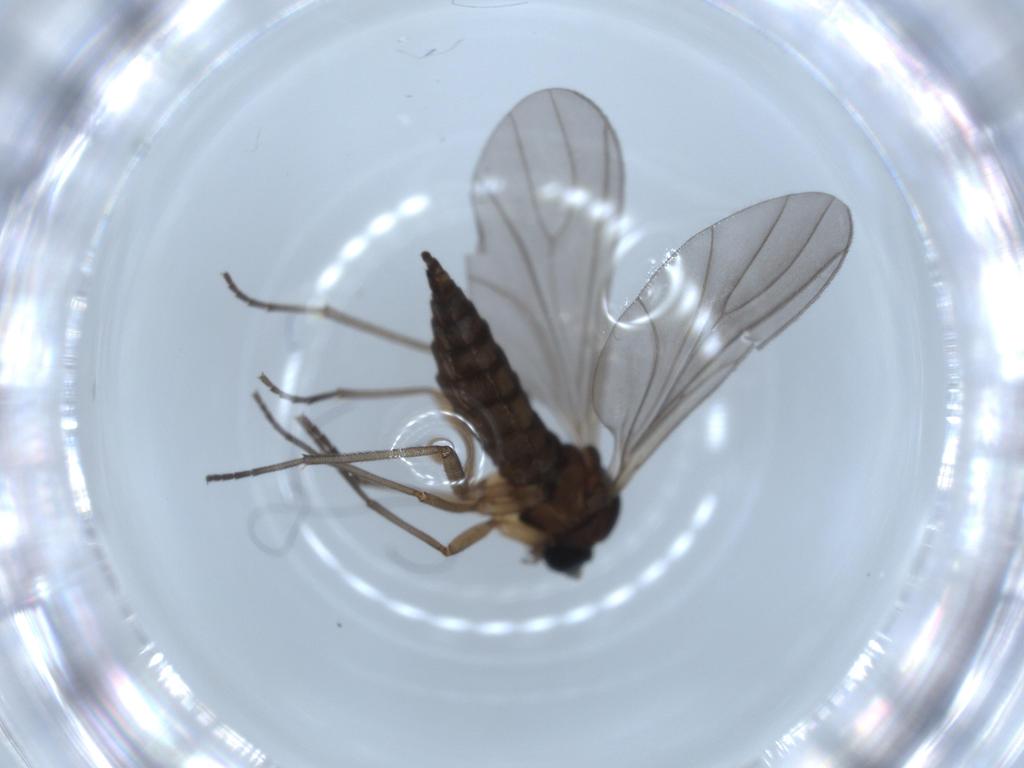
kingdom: Animalia
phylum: Arthropoda
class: Insecta
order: Diptera
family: Sciaridae
